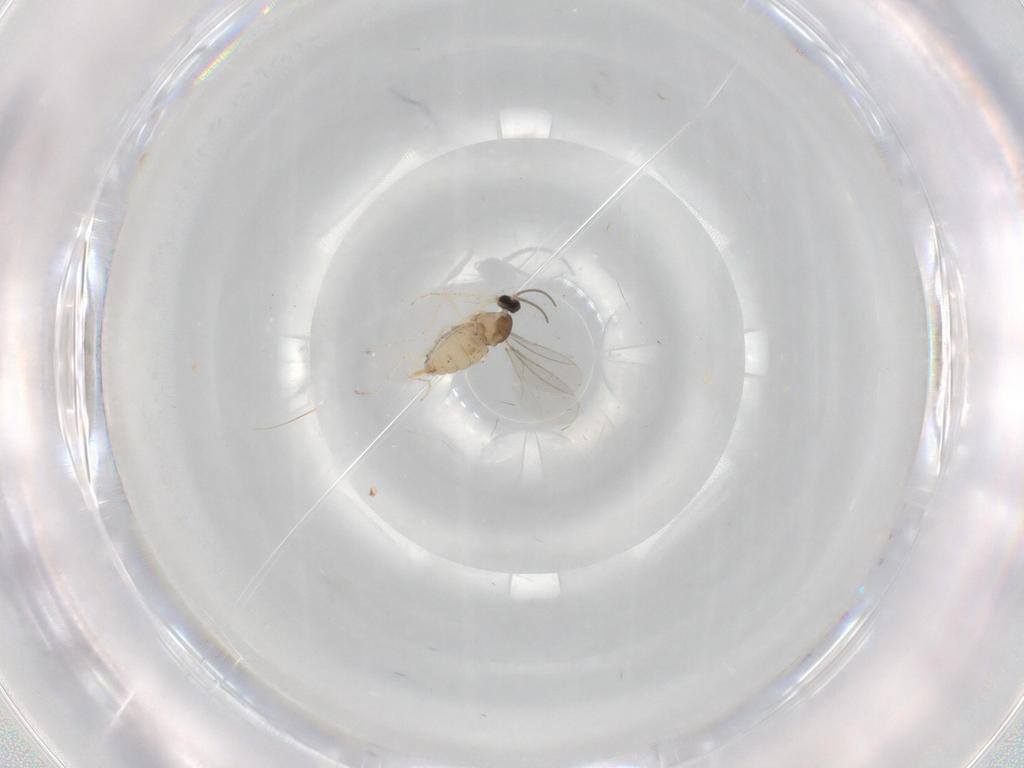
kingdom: Animalia
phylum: Arthropoda
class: Insecta
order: Diptera
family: Cecidomyiidae
